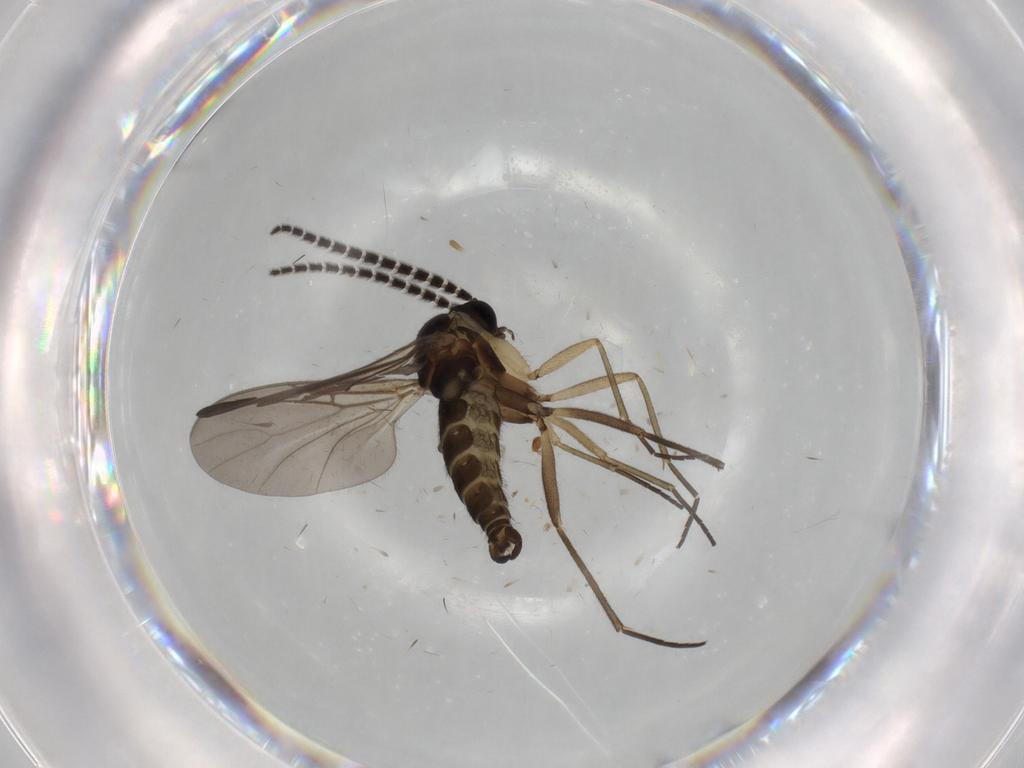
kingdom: Animalia
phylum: Arthropoda
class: Insecta
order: Diptera
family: Sciaridae
